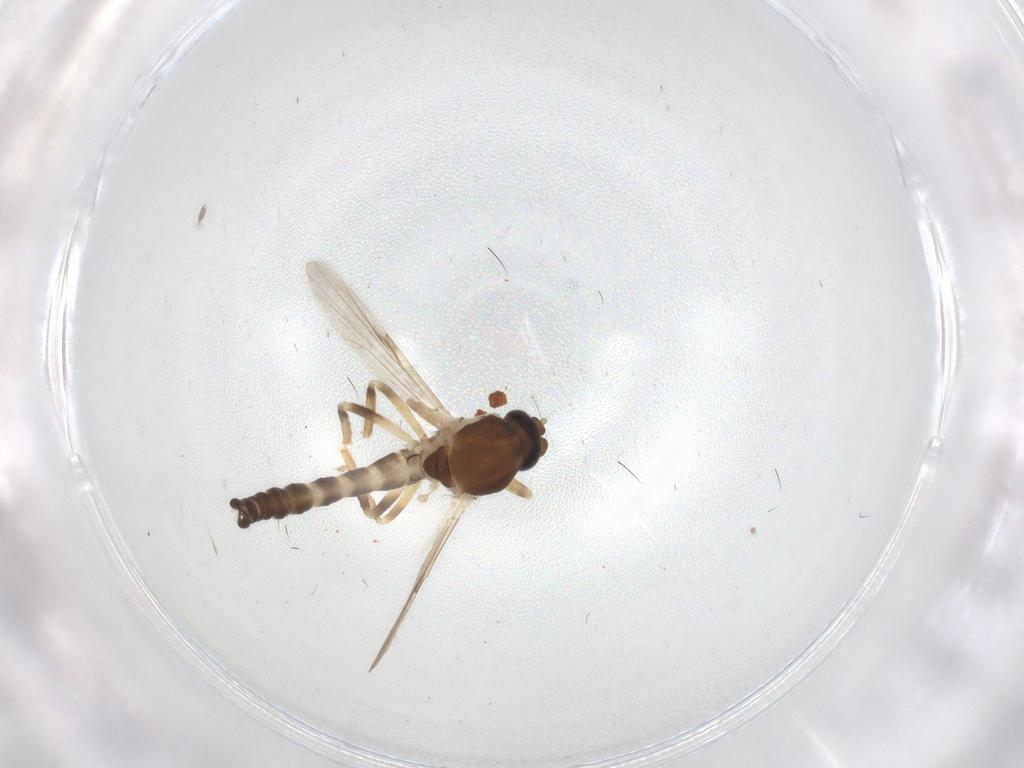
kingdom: Animalia
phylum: Arthropoda
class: Insecta
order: Diptera
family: Ceratopogonidae
